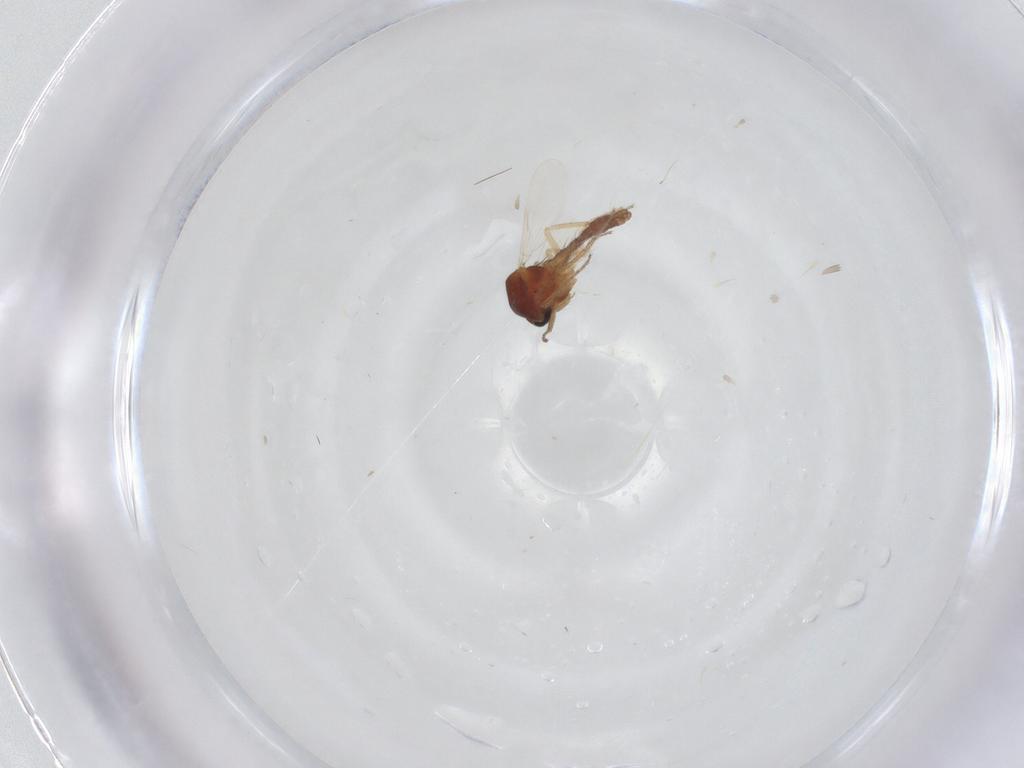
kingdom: Animalia
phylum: Arthropoda
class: Insecta
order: Diptera
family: Ceratopogonidae
